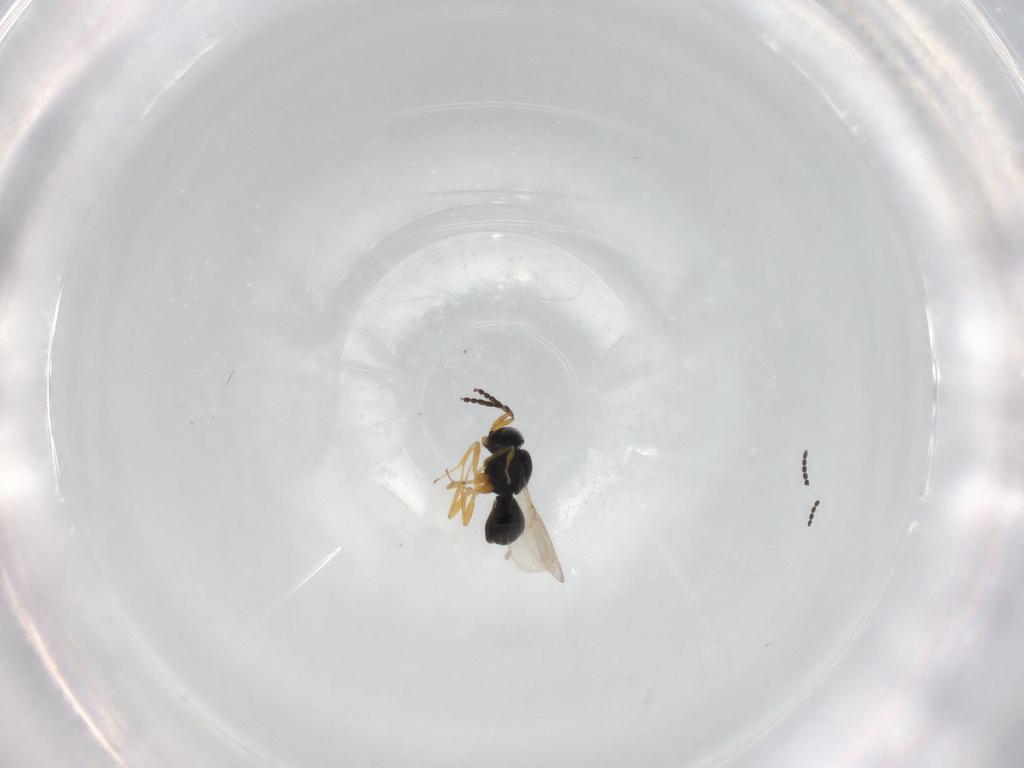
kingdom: Animalia
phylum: Arthropoda
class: Insecta
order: Hymenoptera
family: Scelionidae
